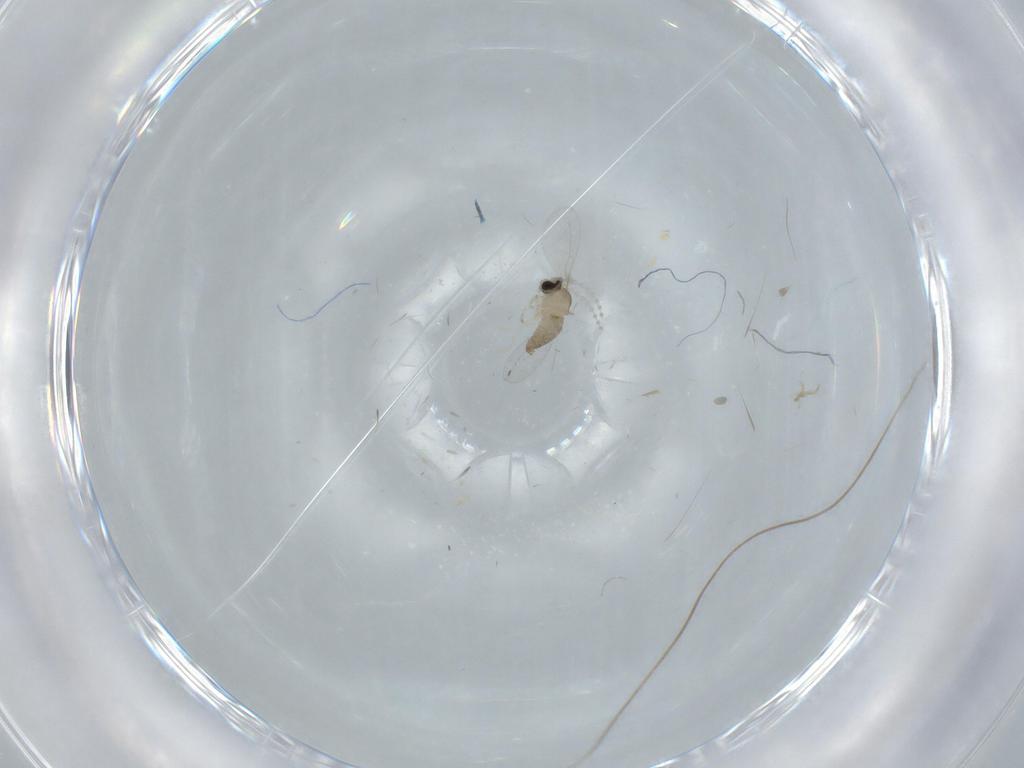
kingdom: Animalia
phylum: Arthropoda
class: Insecta
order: Diptera
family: Cecidomyiidae
